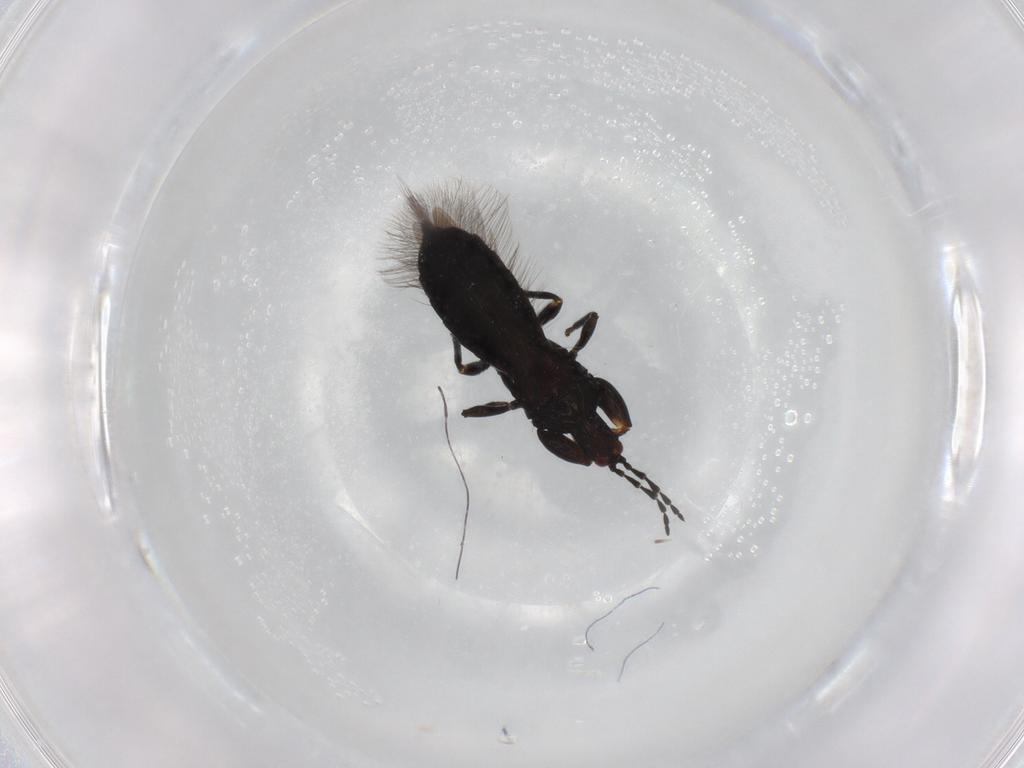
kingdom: Animalia
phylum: Arthropoda
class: Insecta
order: Thysanoptera
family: Phlaeothripidae
